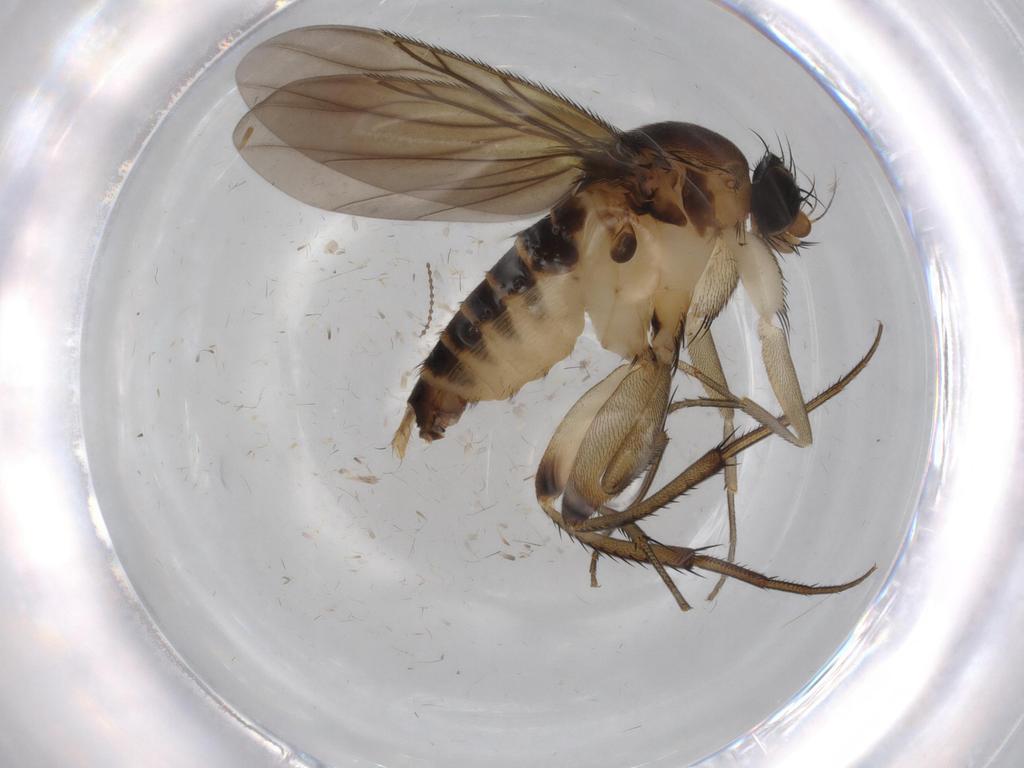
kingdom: Animalia
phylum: Arthropoda
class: Insecta
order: Diptera
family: Phoridae
